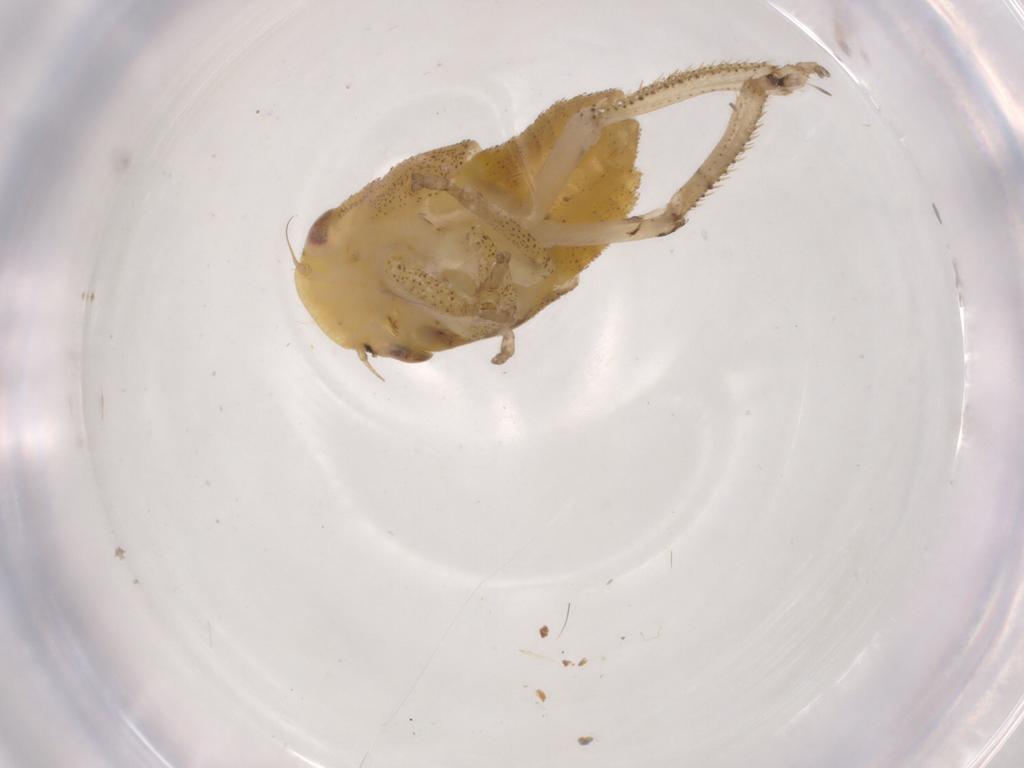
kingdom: Animalia
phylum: Arthropoda
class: Insecta
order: Hemiptera
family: Cicadellidae
